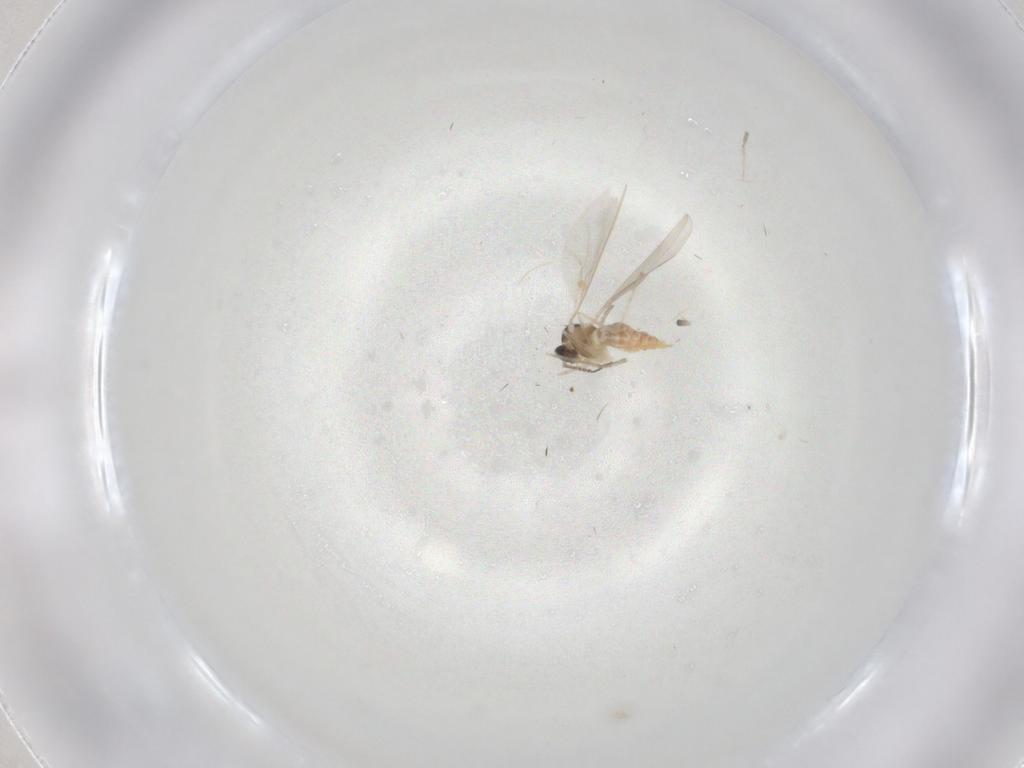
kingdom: Animalia
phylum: Arthropoda
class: Insecta
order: Diptera
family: Cecidomyiidae
